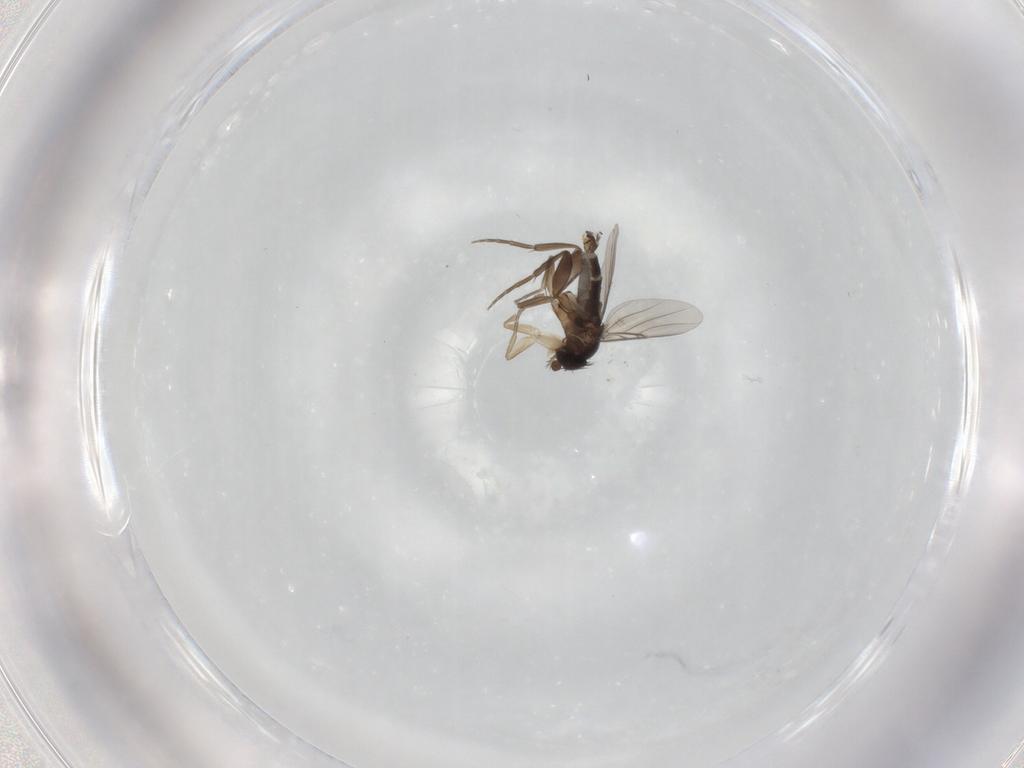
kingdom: Animalia
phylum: Arthropoda
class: Insecta
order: Diptera
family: Phoridae
